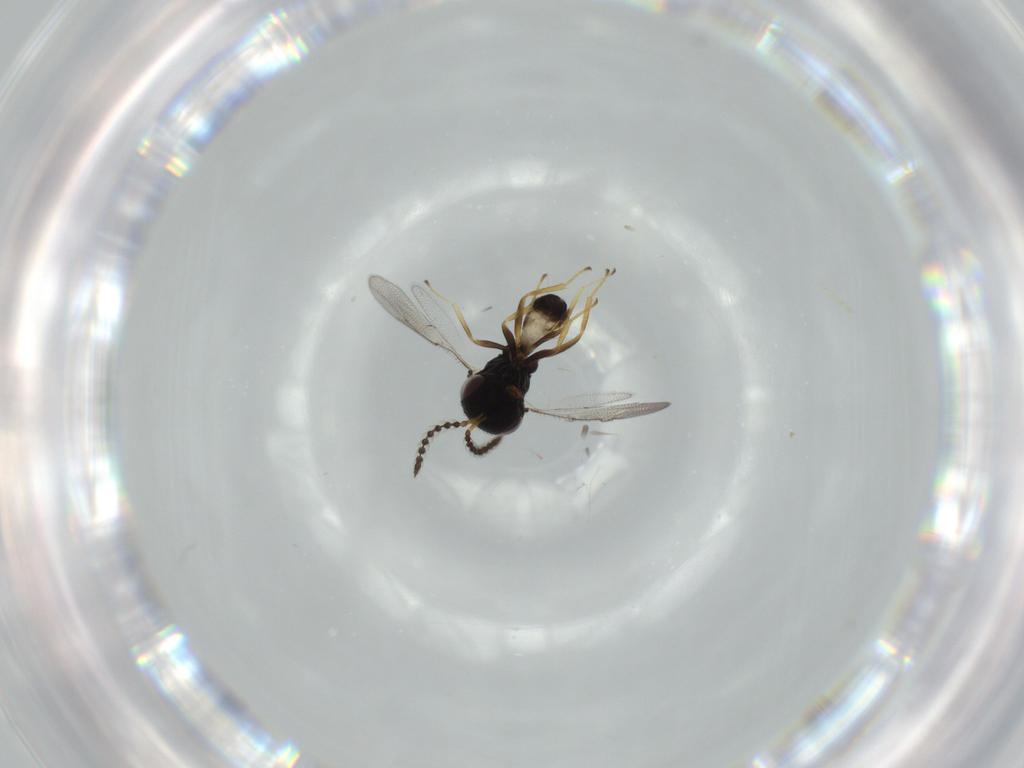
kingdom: Animalia
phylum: Arthropoda
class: Insecta
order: Hymenoptera
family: Pteromalidae
